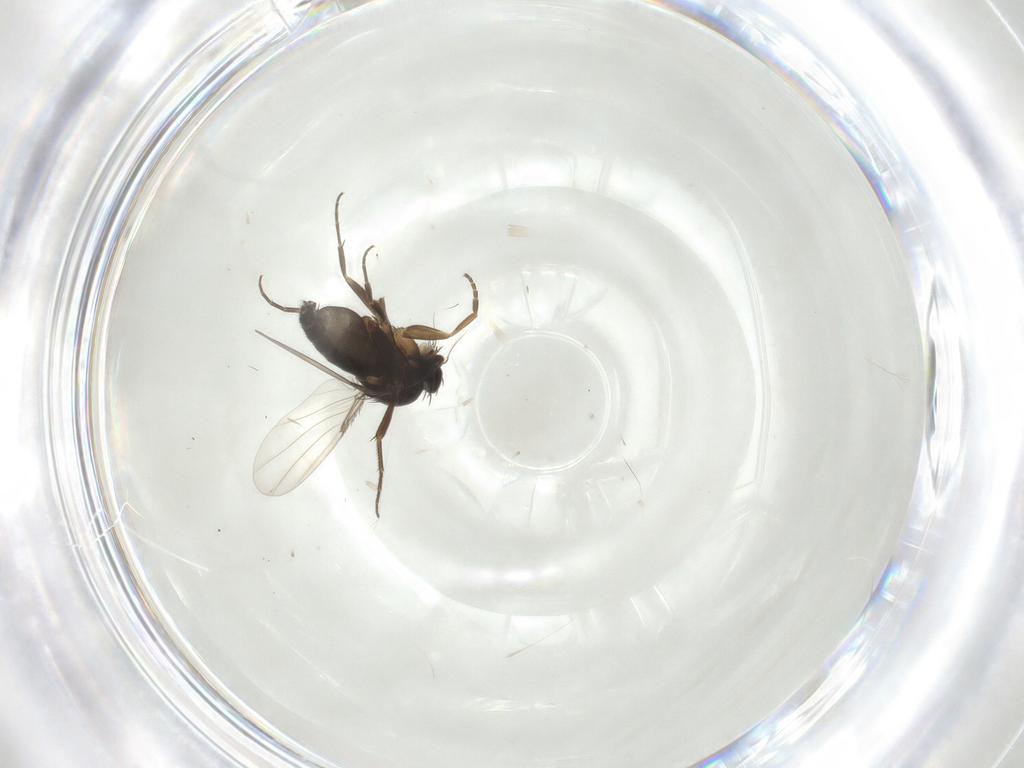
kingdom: Animalia
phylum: Arthropoda
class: Insecta
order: Diptera
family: Phoridae
